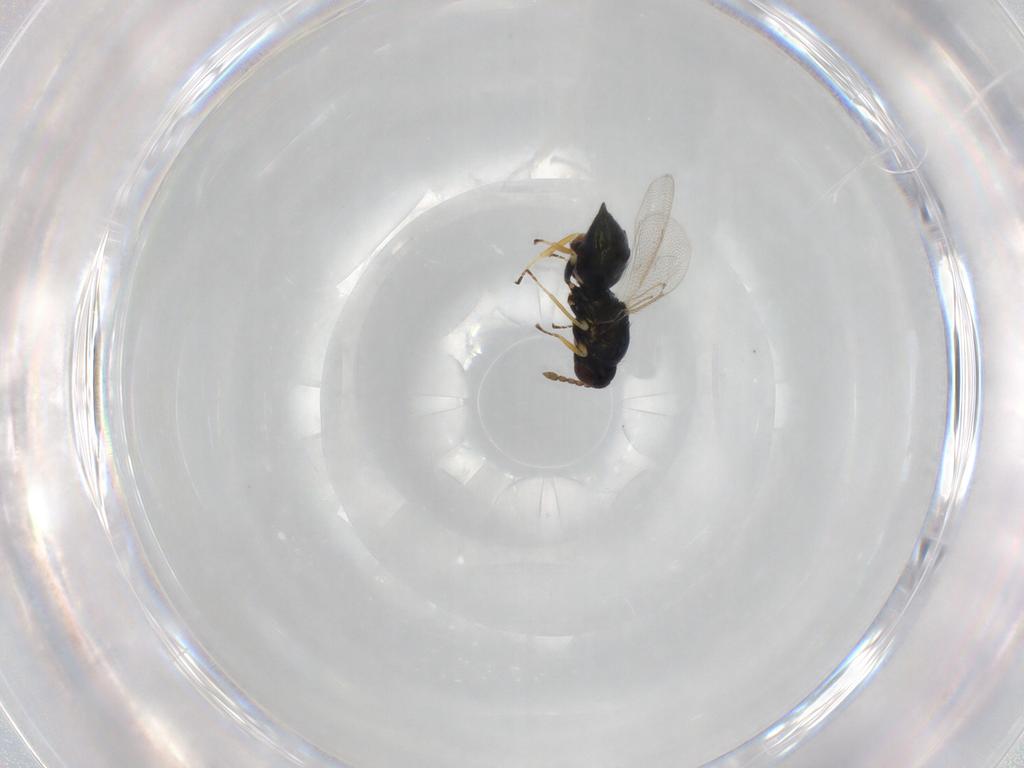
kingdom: Animalia
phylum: Arthropoda
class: Insecta
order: Hymenoptera
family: Eulophidae
